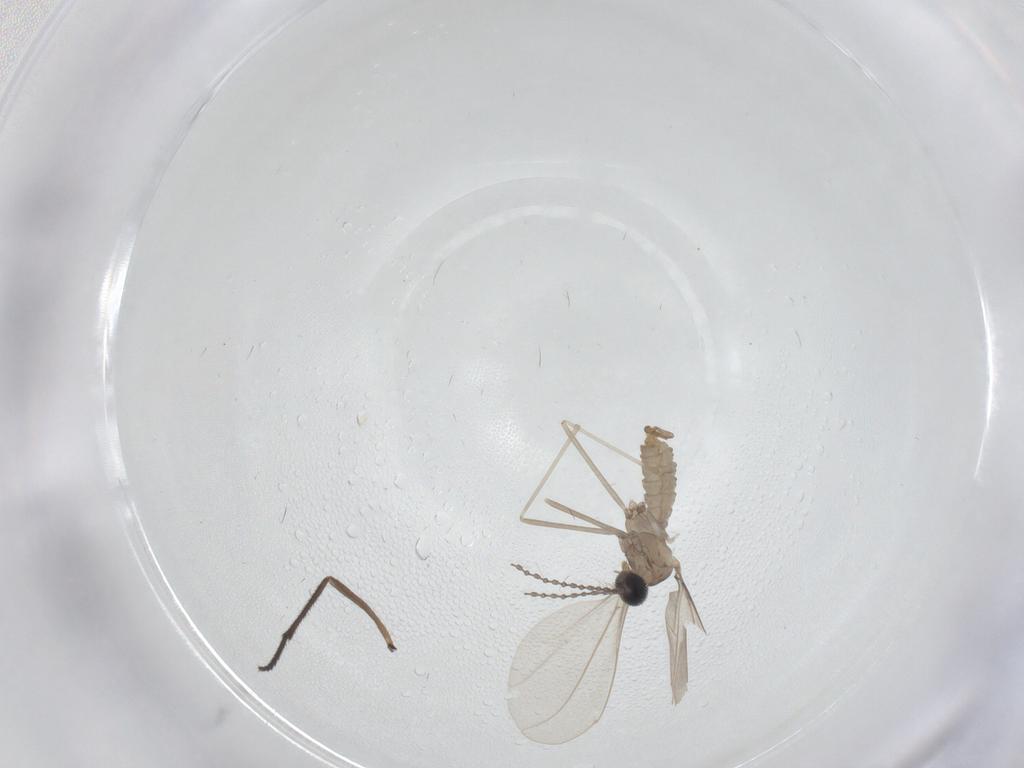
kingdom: Animalia
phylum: Arthropoda
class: Insecta
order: Diptera
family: Cecidomyiidae
